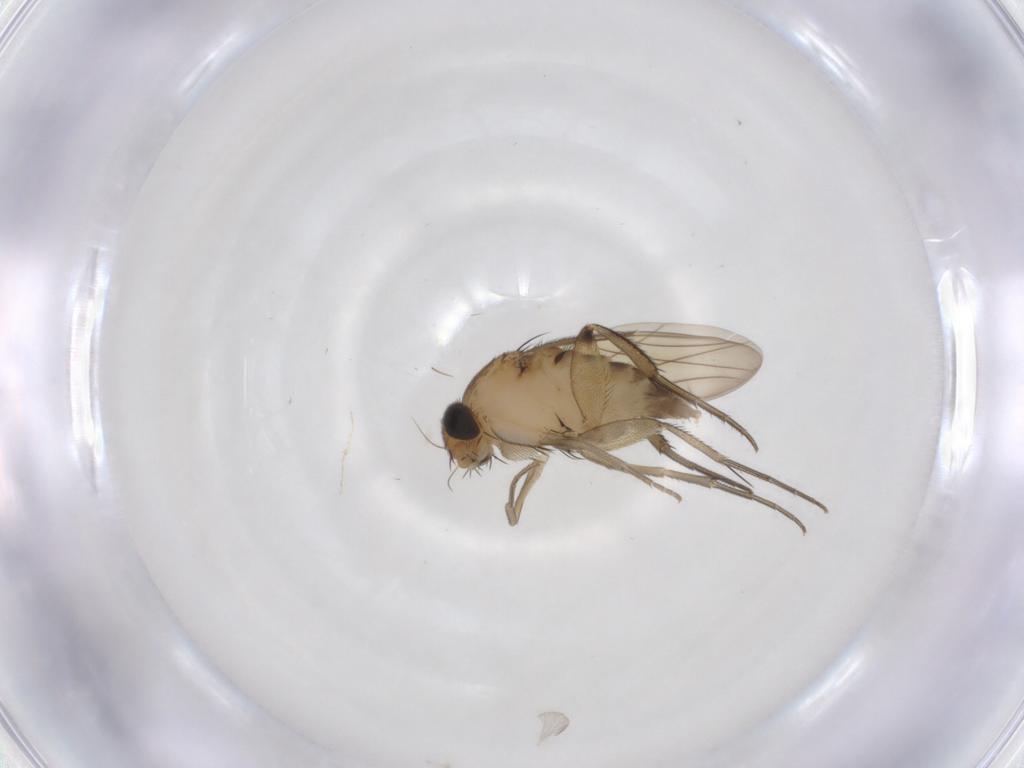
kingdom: Animalia
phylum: Arthropoda
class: Insecta
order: Diptera
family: Phoridae
